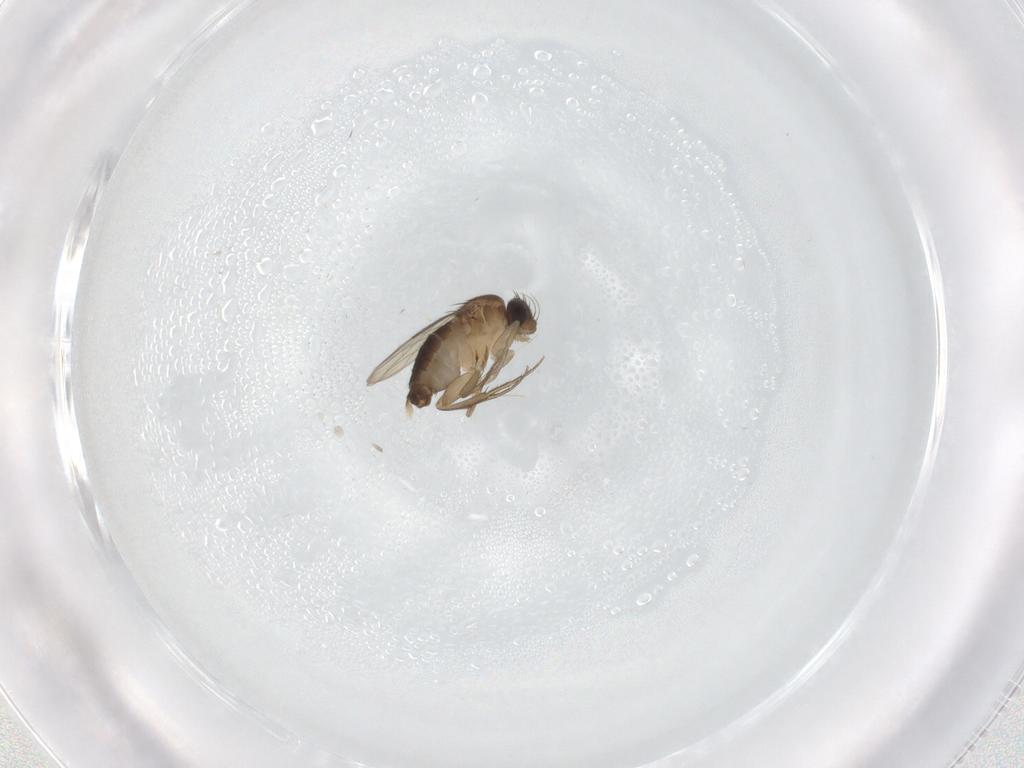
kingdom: Animalia
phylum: Arthropoda
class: Insecta
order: Diptera
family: Phoridae
